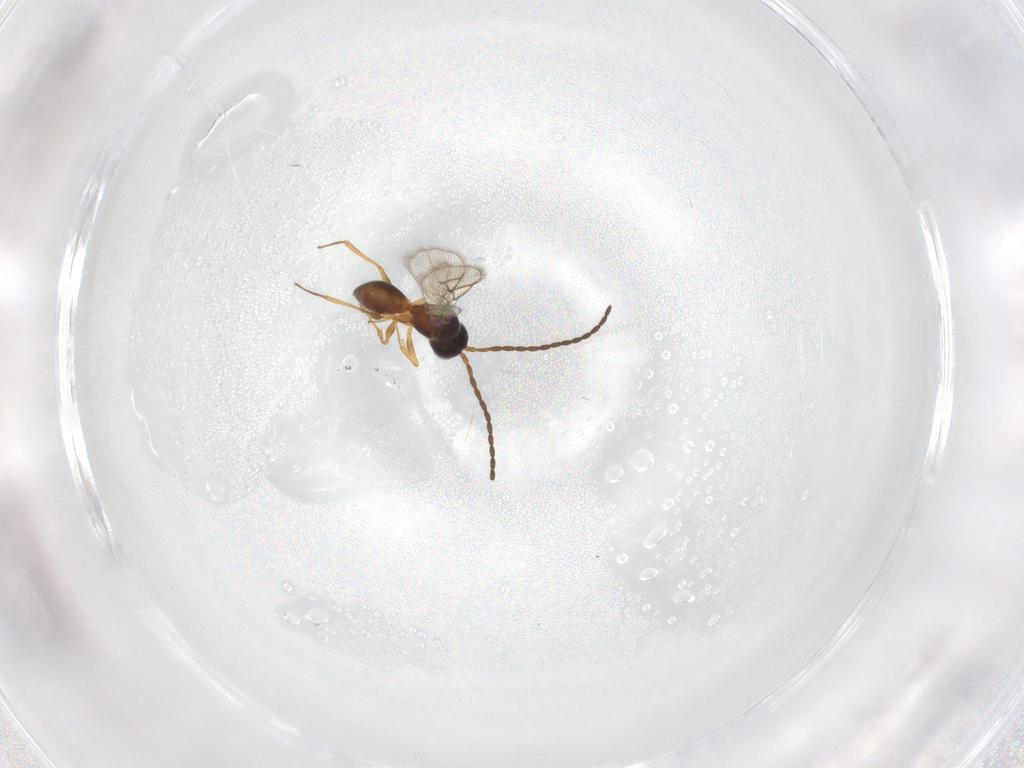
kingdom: Animalia
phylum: Arthropoda
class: Insecta
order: Hymenoptera
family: Figitidae
